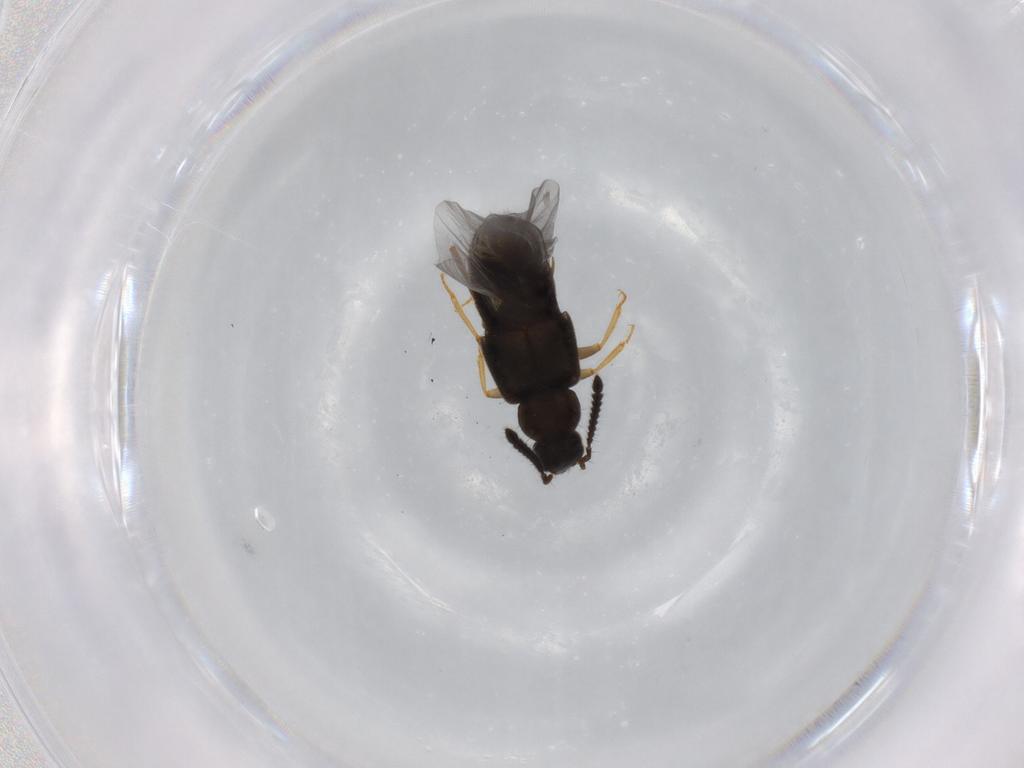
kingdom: Animalia
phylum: Arthropoda
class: Insecta
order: Coleoptera
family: Staphylinidae
